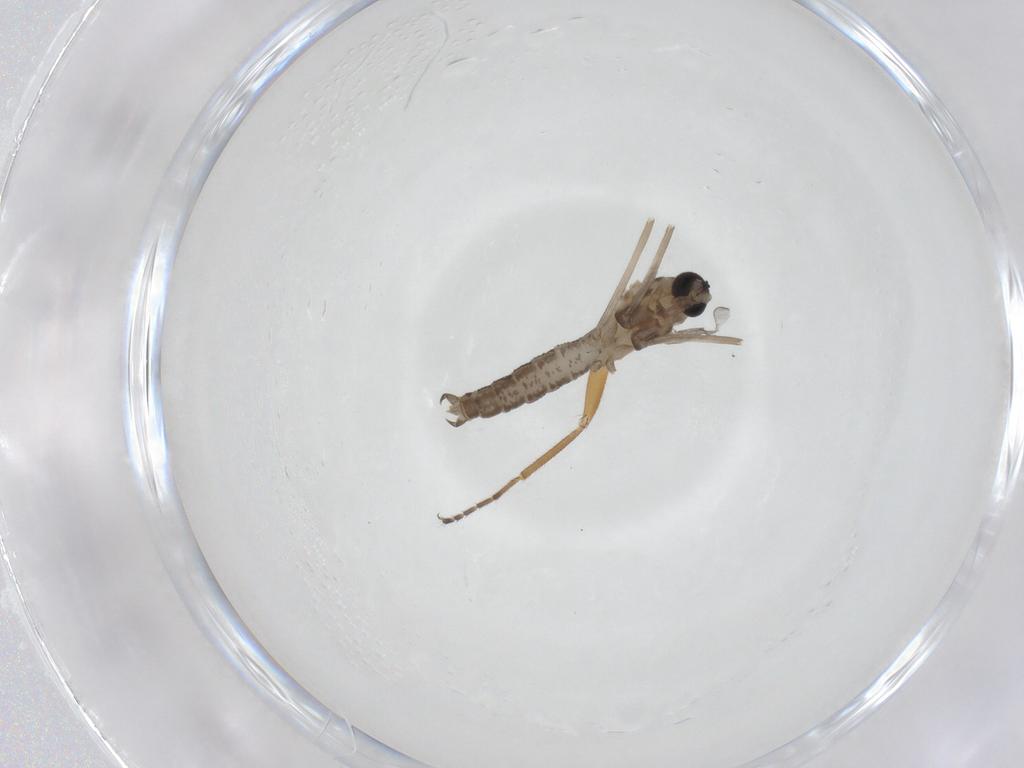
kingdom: Animalia
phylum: Arthropoda
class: Insecta
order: Diptera
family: Cecidomyiidae
